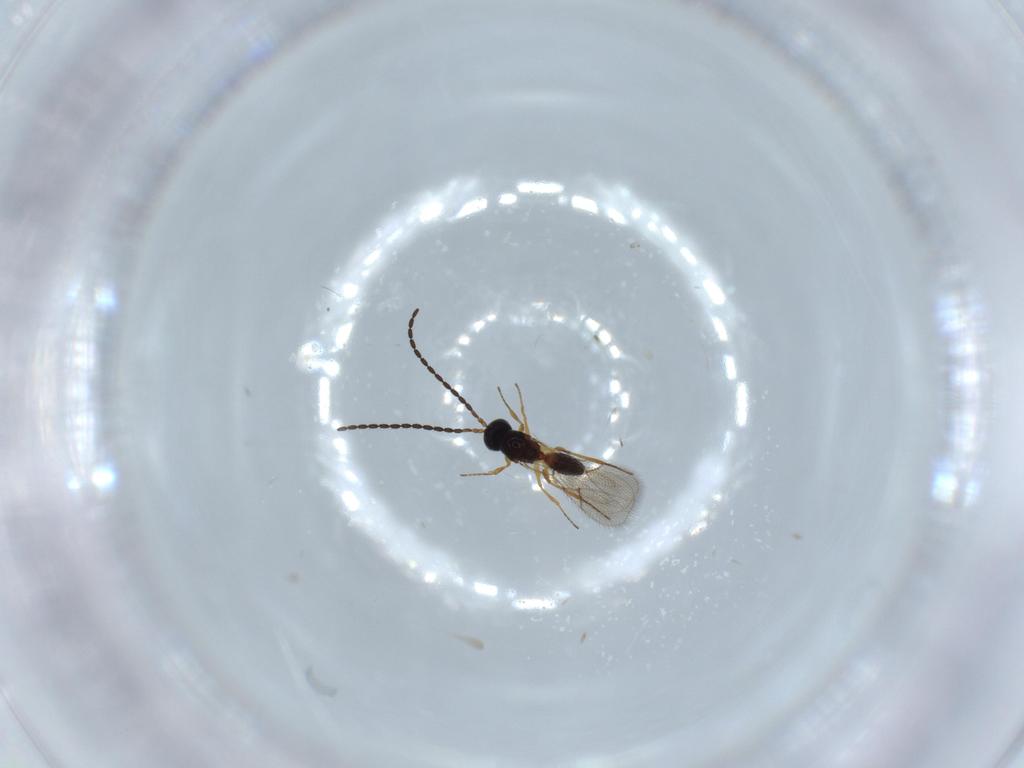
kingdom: Animalia
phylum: Arthropoda
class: Insecta
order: Hymenoptera
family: Figitidae
